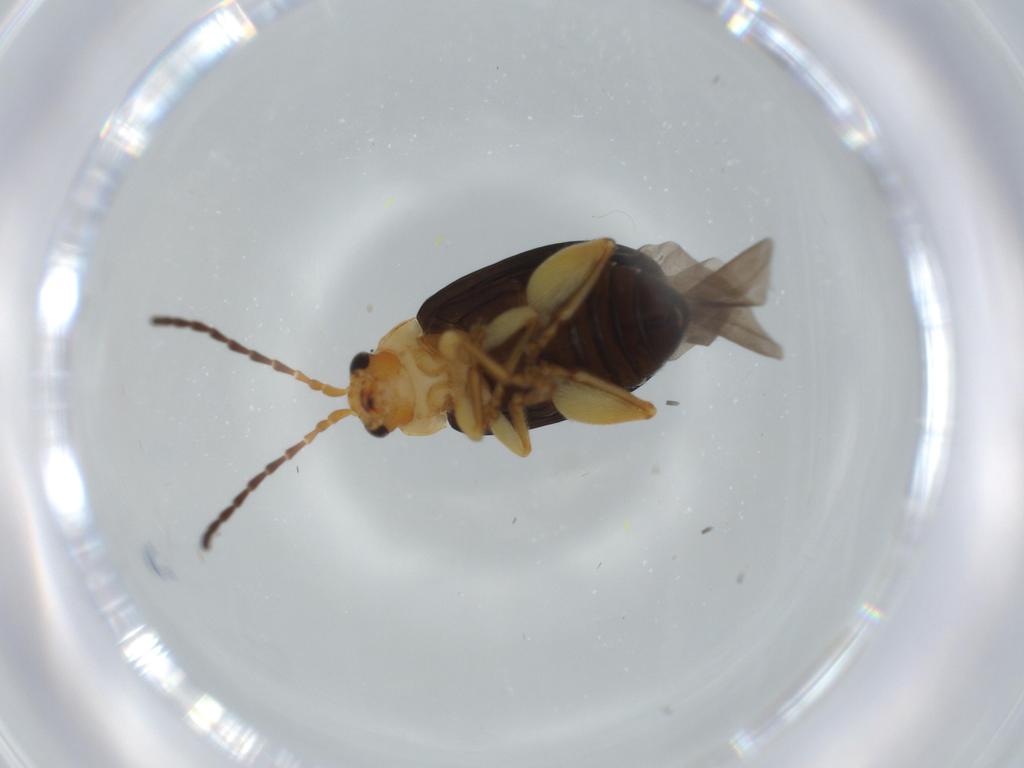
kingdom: Animalia
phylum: Arthropoda
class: Insecta
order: Coleoptera
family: Chrysomelidae
